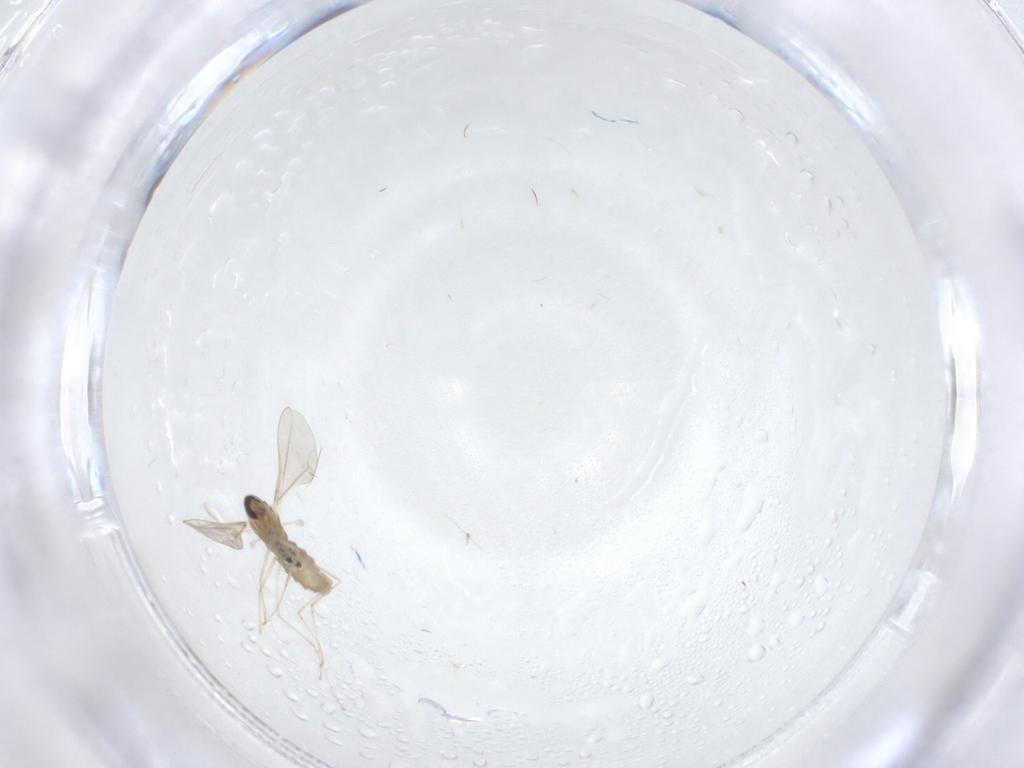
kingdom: Animalia
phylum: Arthropoda
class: Insecta
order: Diptera
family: Cecidomyiidae
